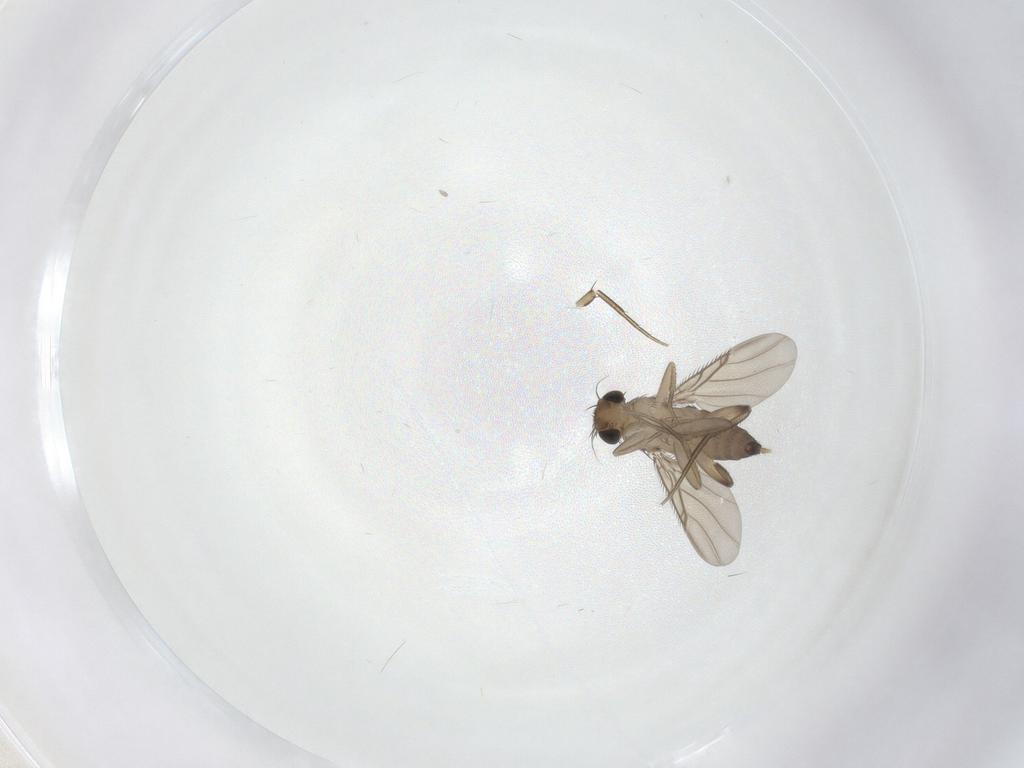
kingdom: Animalia
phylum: Arthropoda
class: Insecta
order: Diptera
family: Phoridae
